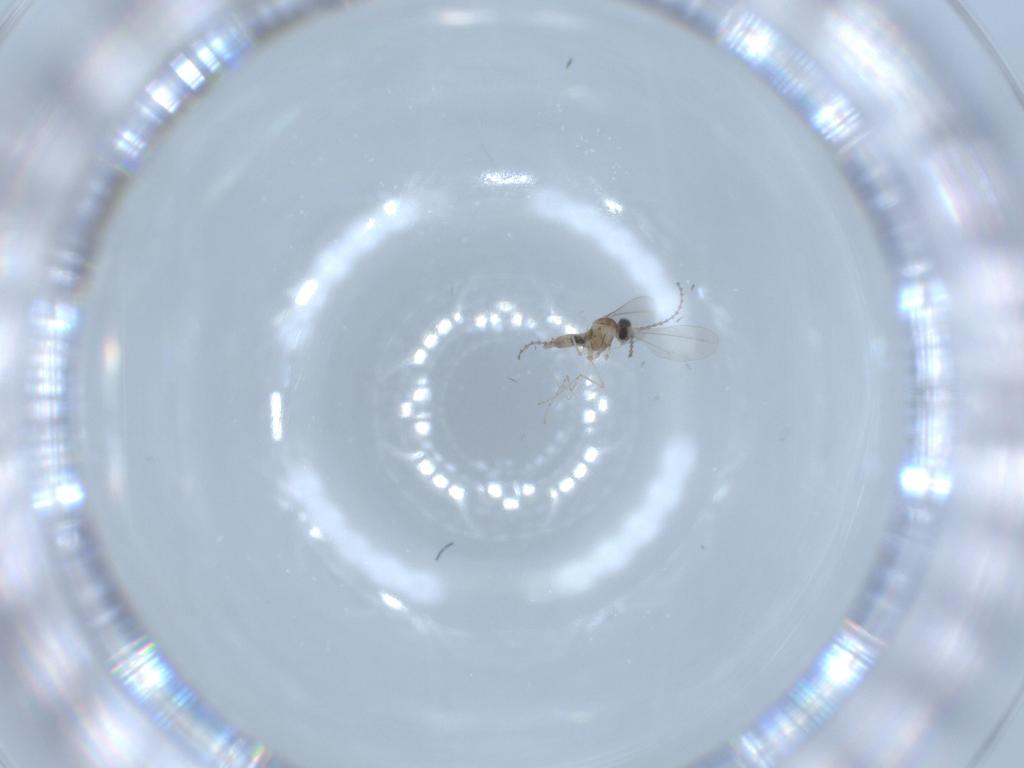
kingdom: Animalia
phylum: Arthropoda
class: Insecta
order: Diptera
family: Cecidomyiidae
